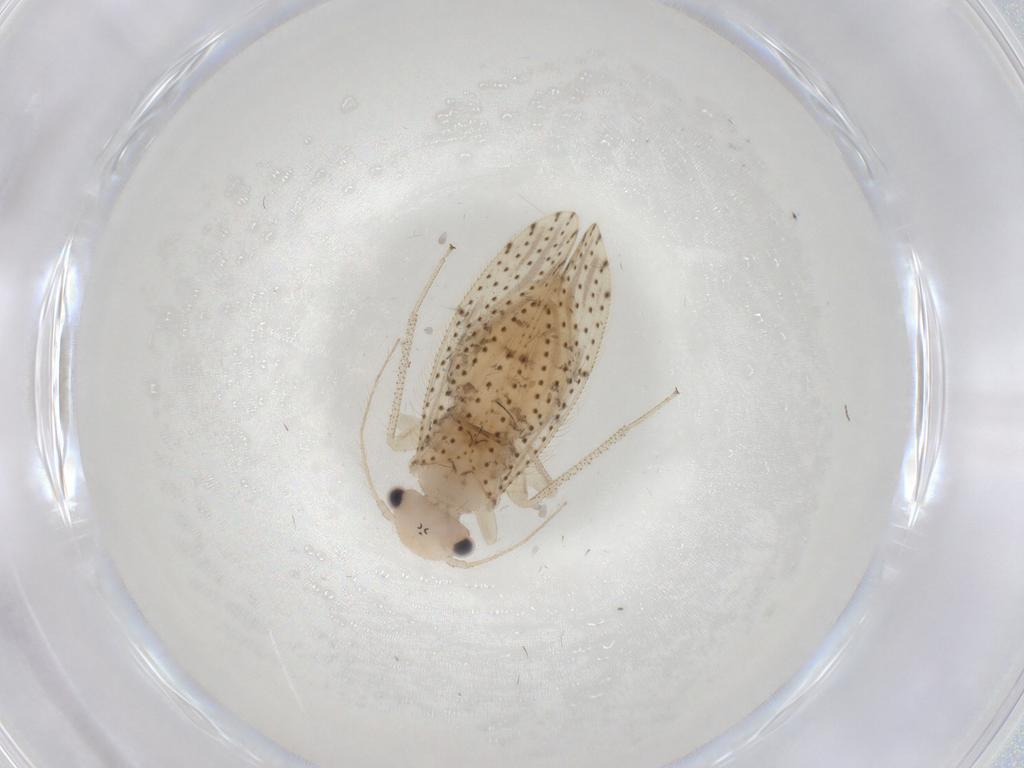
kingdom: Animalia
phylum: Arthropoda
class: Insecta
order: Psocodea
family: Myopsocidae
